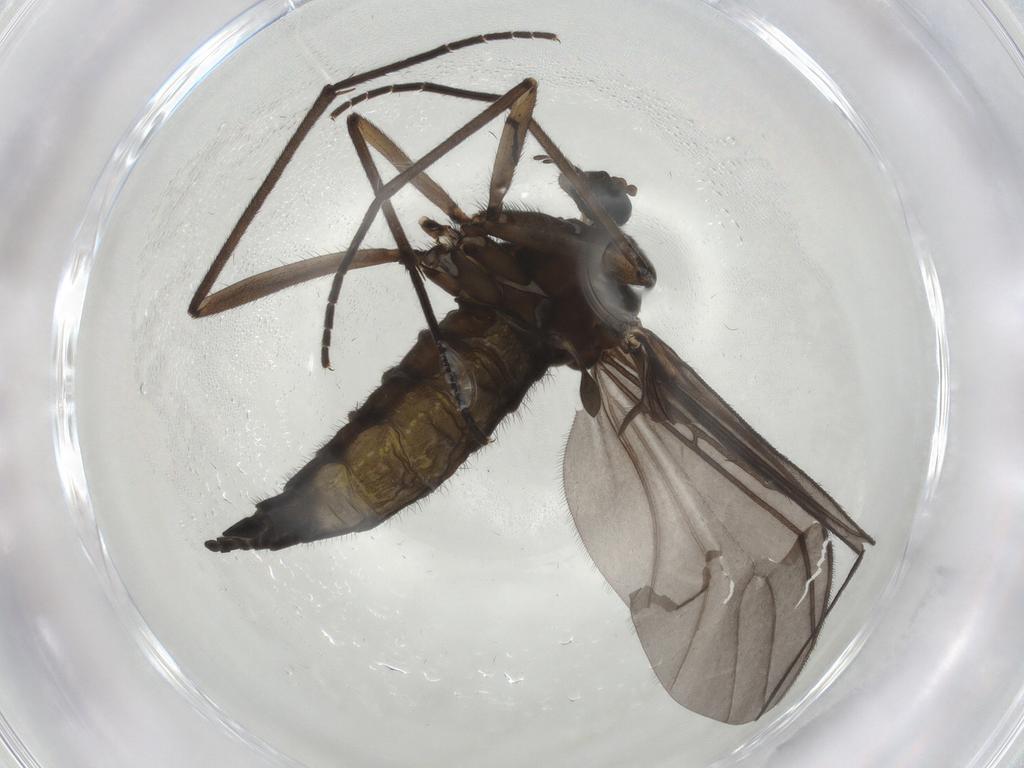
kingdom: Animalia
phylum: Arthropoda
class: Insecta
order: Diptera
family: Sciaridae
